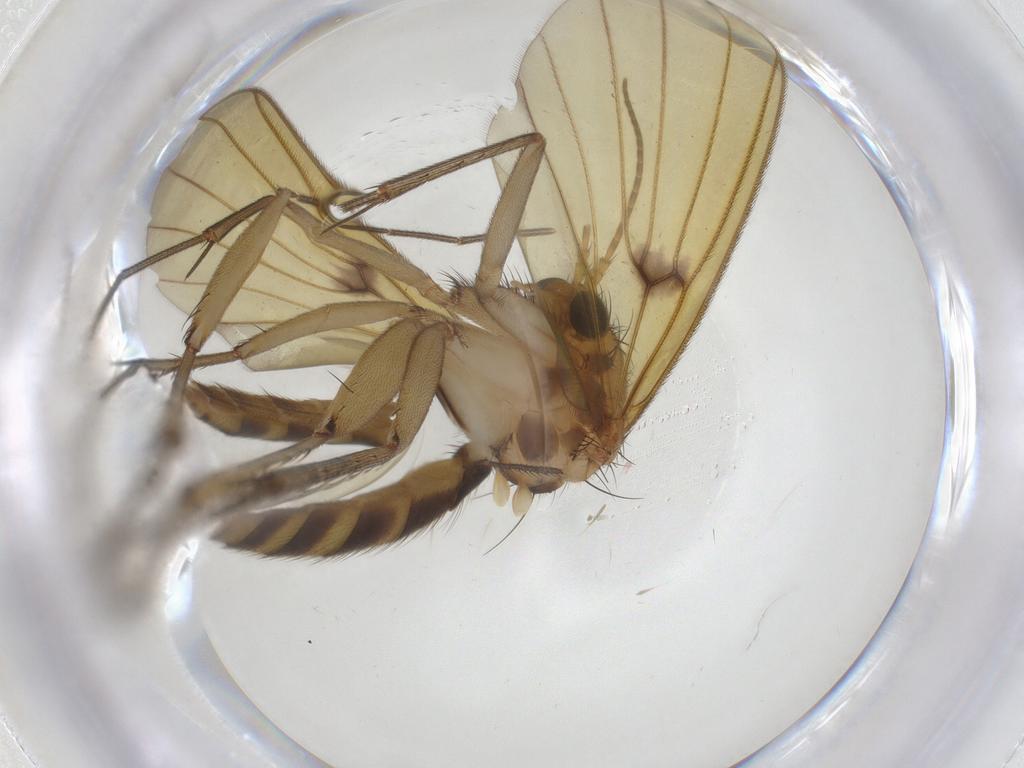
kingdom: Animalia
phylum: Arthropoda
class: Insecta
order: Diptera
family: Mycetophilidae
